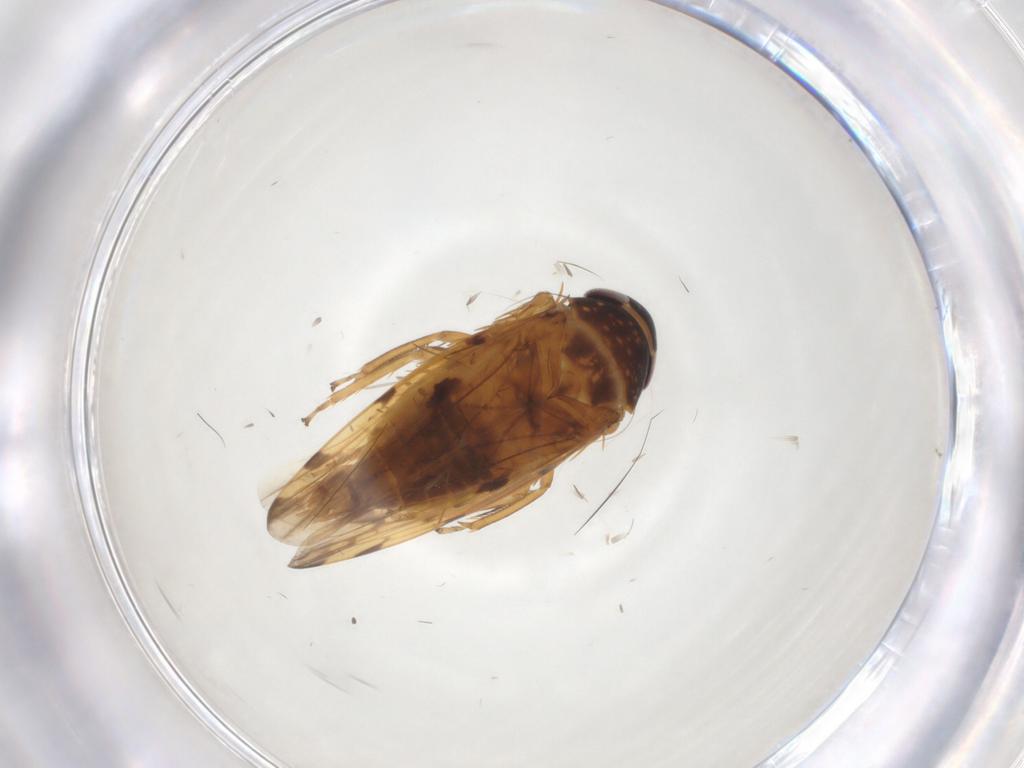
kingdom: Animalia
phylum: Arthropoda
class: Insecta
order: Hemiptera
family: Cicadellidae
